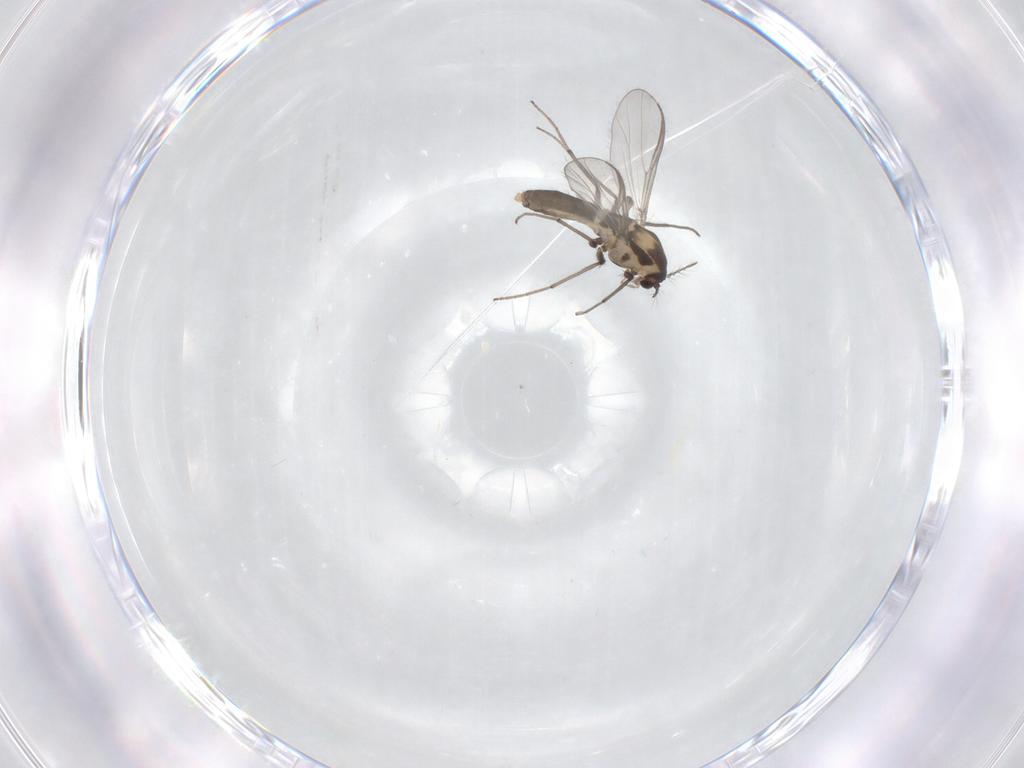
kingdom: Animalia
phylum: Arthropoda
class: Insecta
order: Diptera
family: Chironomidae
